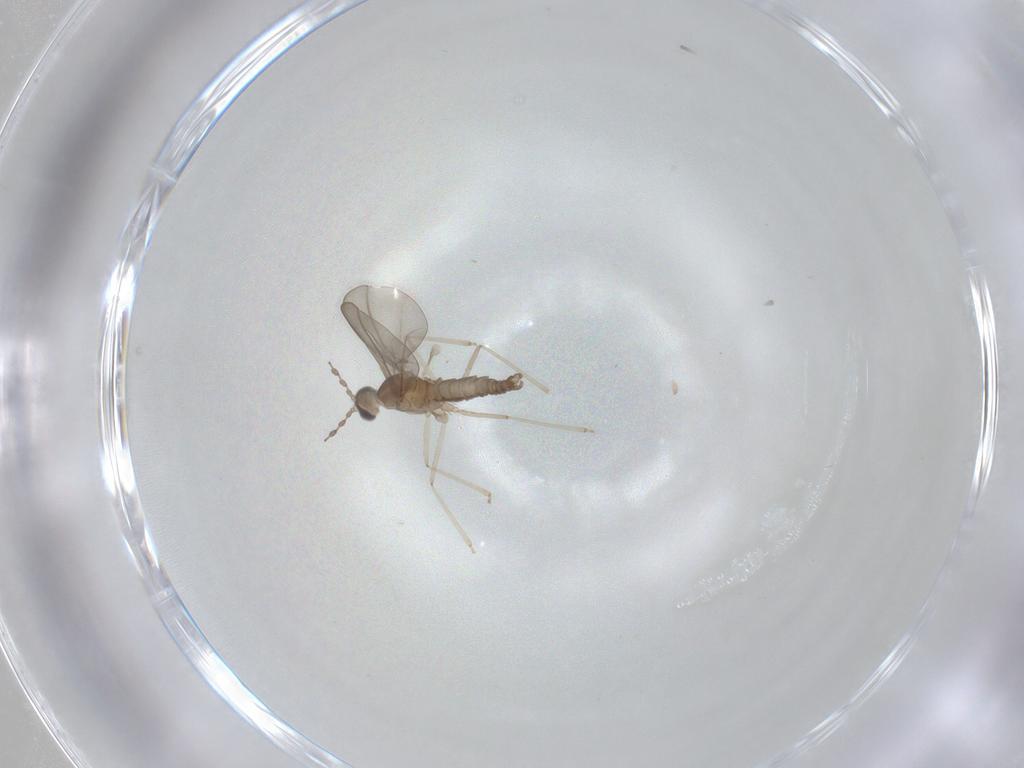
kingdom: Animalia
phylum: Arthropoda
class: Insecta
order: Diptera
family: Cecidomyiidae
